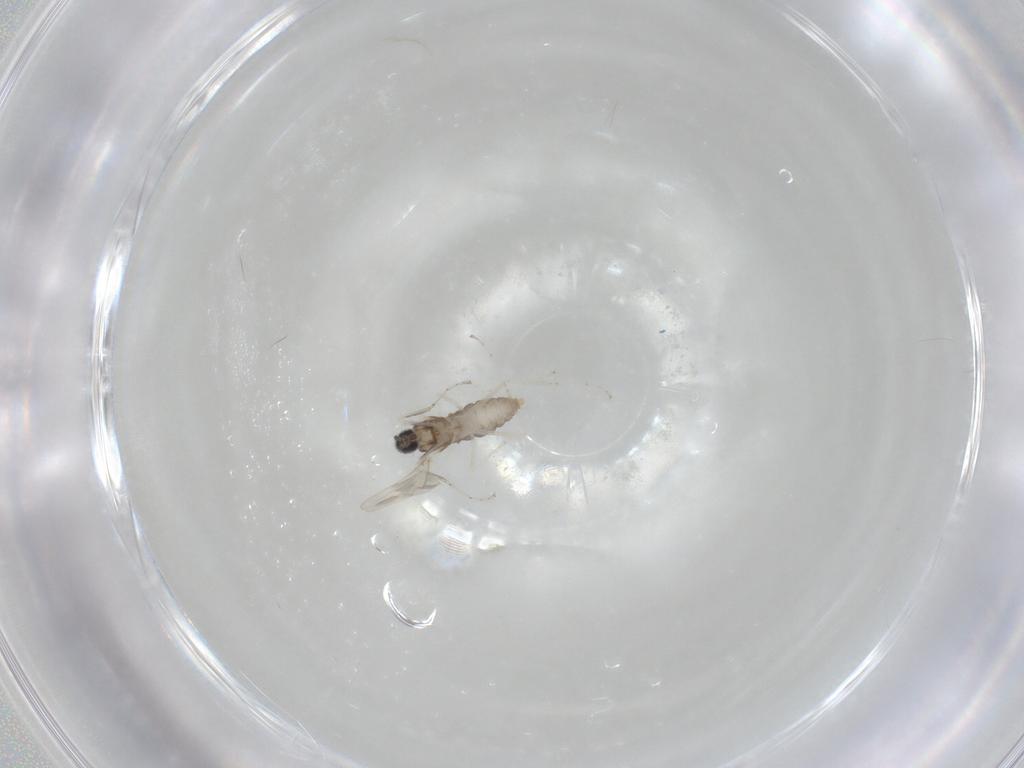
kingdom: Animalia
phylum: Arthropoda
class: Insecta
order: Diptera
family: Cecidomyiidae
